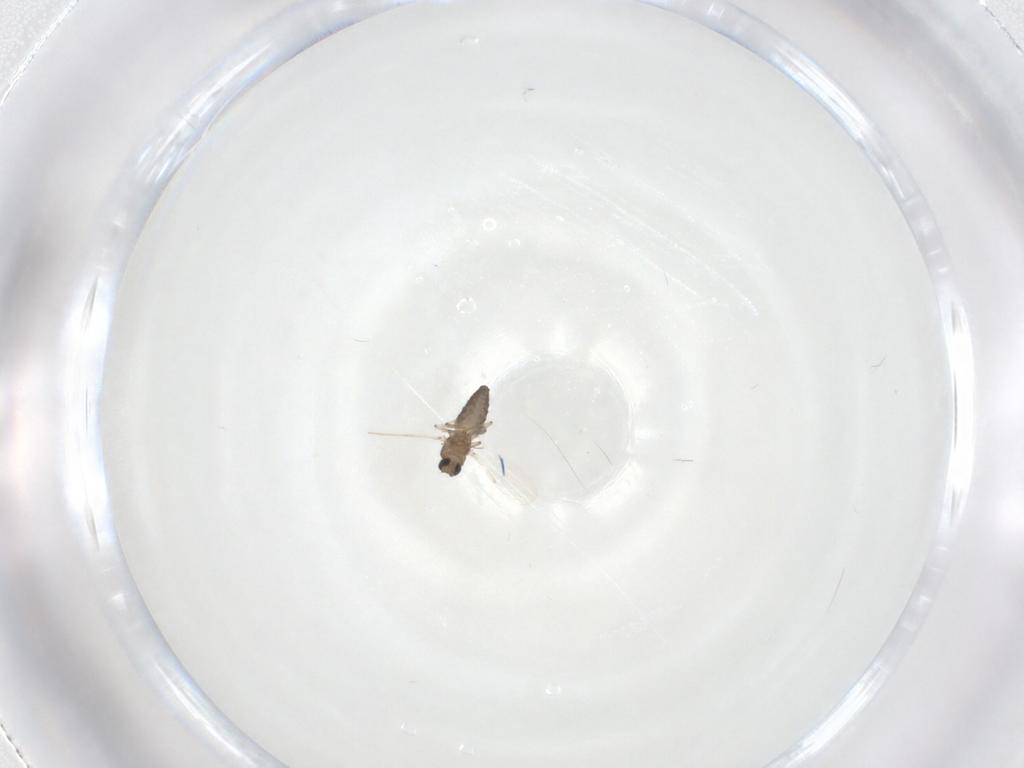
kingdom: Animalia
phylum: Arthropoda
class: Insecta
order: Diptera
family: Ceratopogonidae
